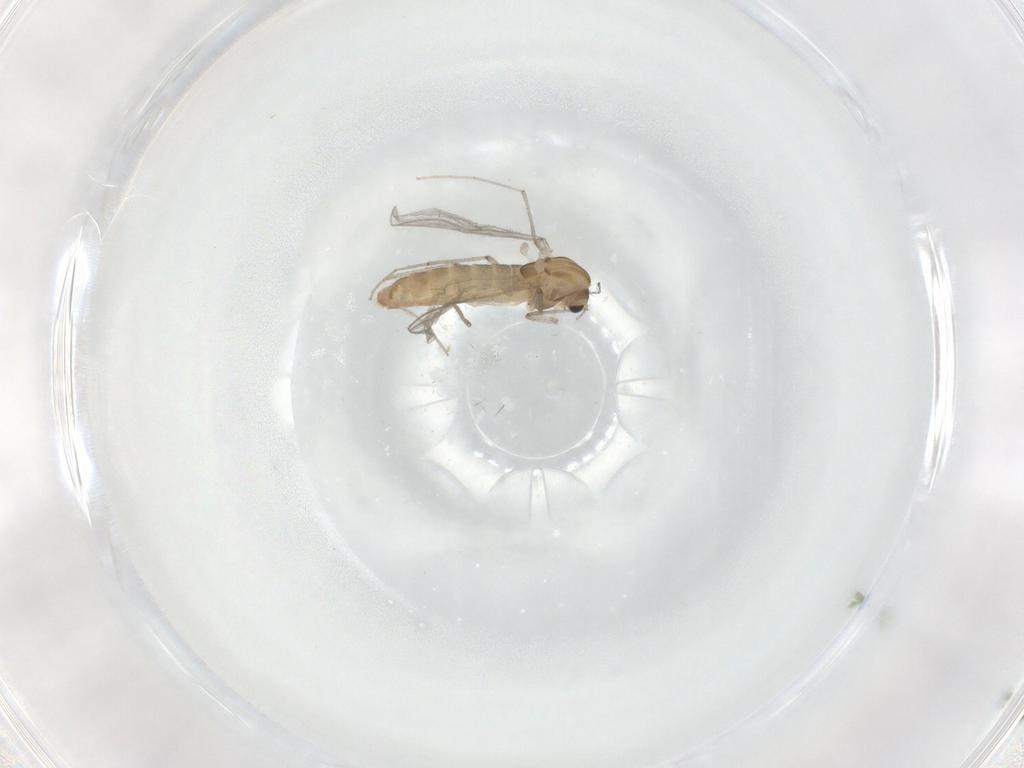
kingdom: Animalia
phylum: Arthropoda
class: Insecta
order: Diptera
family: Chironomidae
